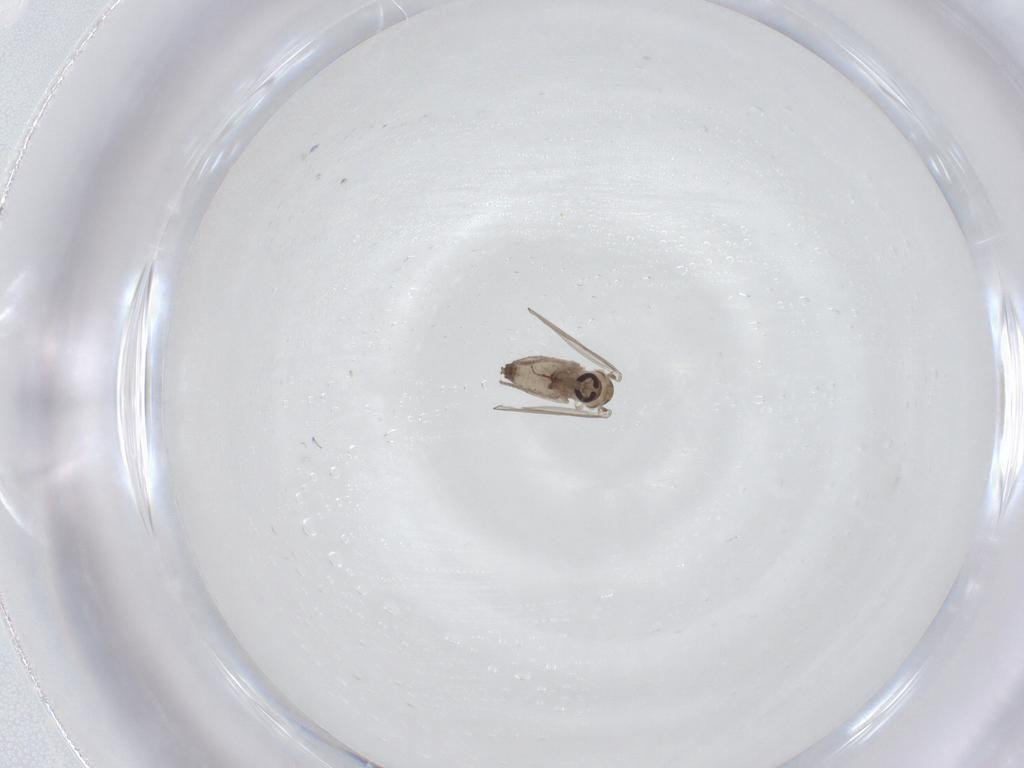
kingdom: Animalia
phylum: Arthropoda
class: Insecta
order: Diptera
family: Psychodidae
